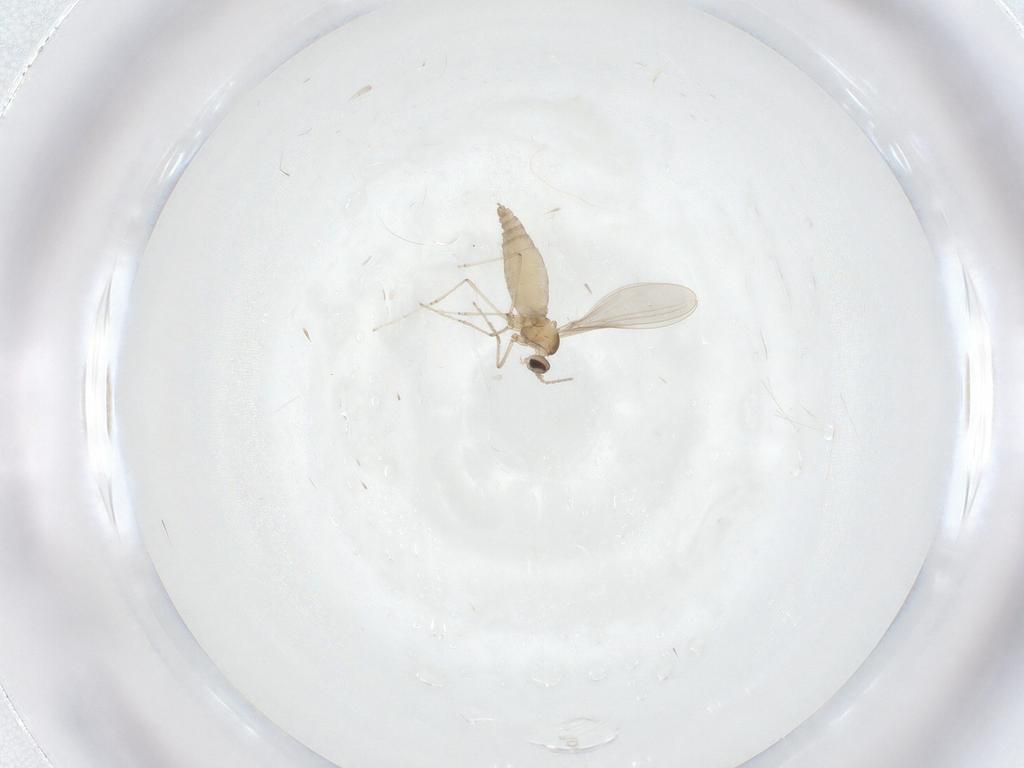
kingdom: Animalia
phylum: Arthropoda
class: Insecta
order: Diptera
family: Cecidomyiidae
